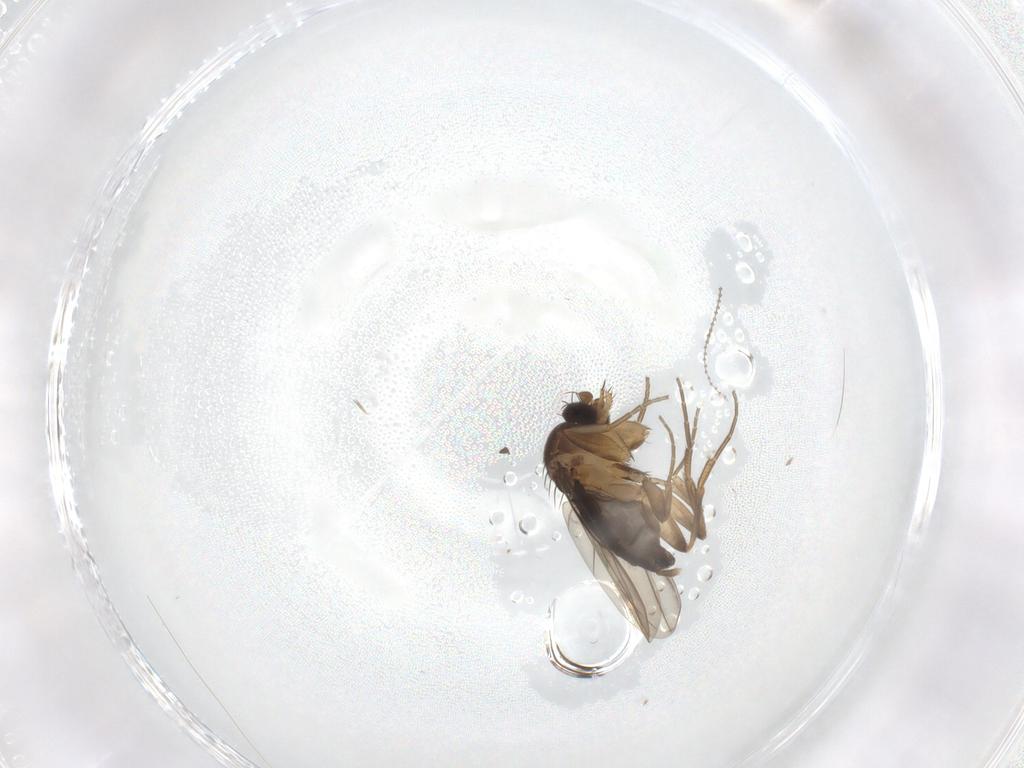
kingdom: Animalia
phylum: Arthropoda
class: Insecta
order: Diptera
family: Phoridae
